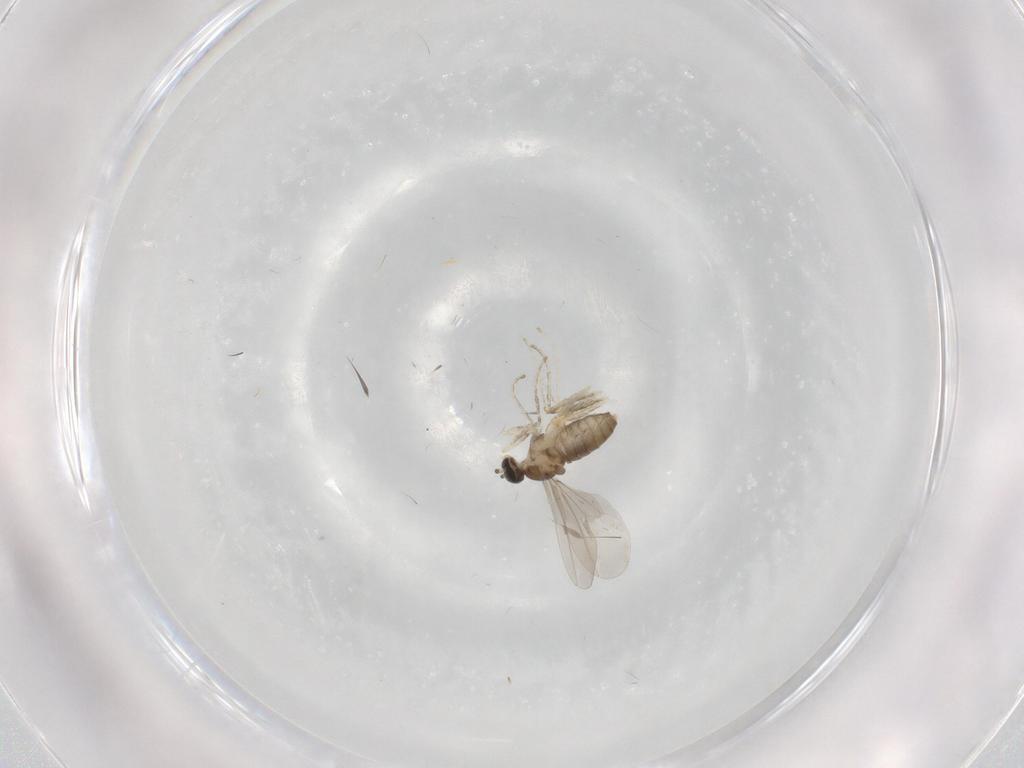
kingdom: Animalia
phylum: Arthropoda
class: Insecta
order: Diptera
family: Cecidomyiidae
